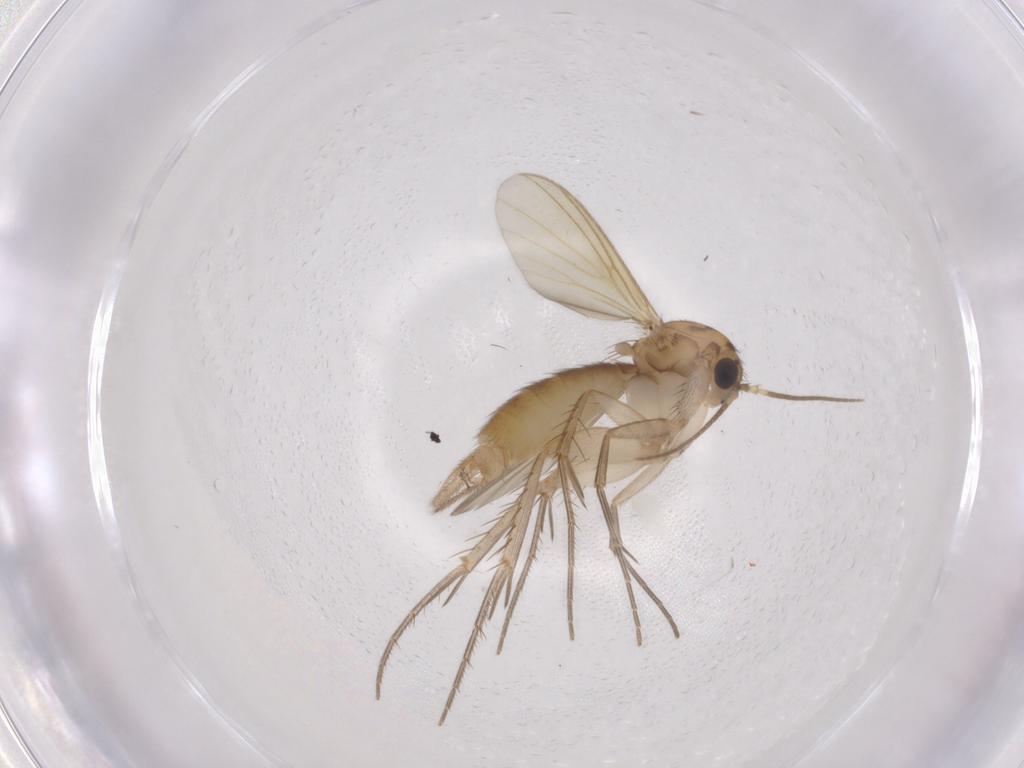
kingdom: Animalia
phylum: Arthropoda
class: Insecta
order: Diptera
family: Mycetophilidae
